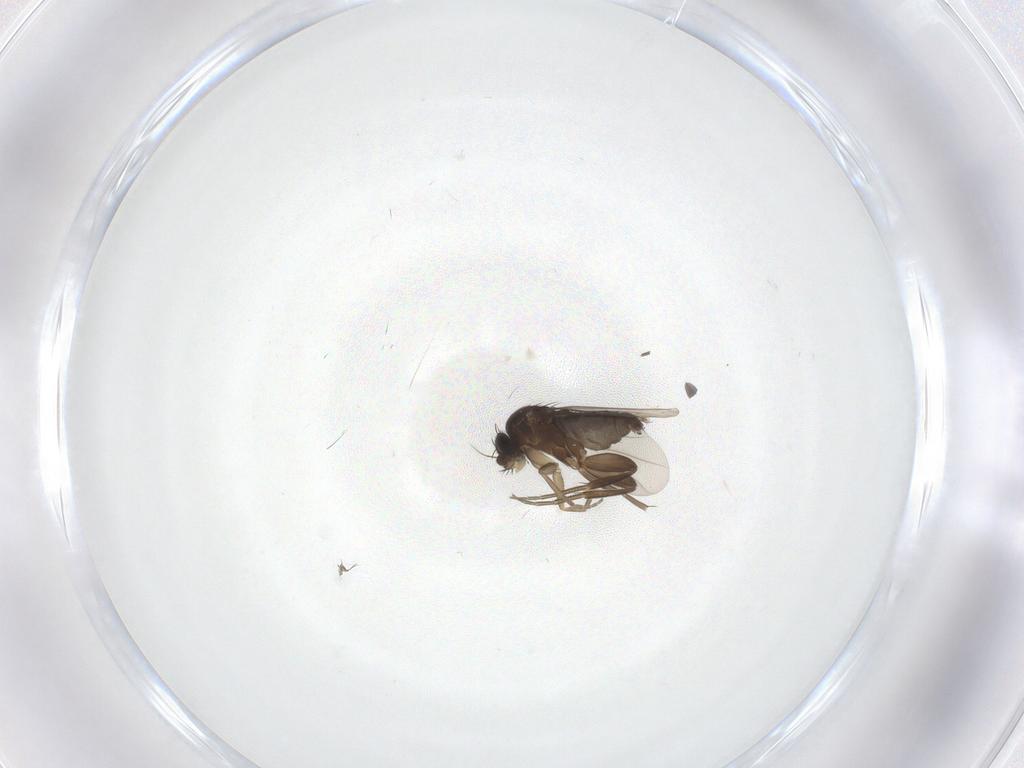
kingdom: Animalia
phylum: Arthropoda
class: Insecta
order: Diptera
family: Phoridae
